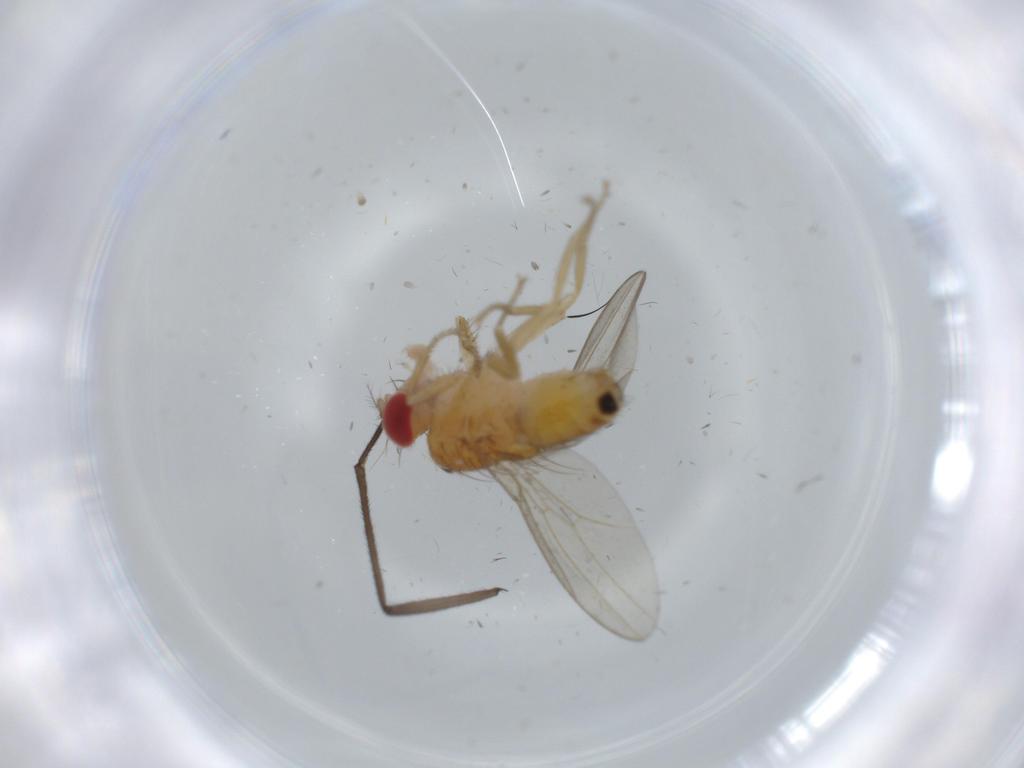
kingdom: Animalia
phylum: Arthropoda
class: Insecta
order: Diptera
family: Drosophilidae
